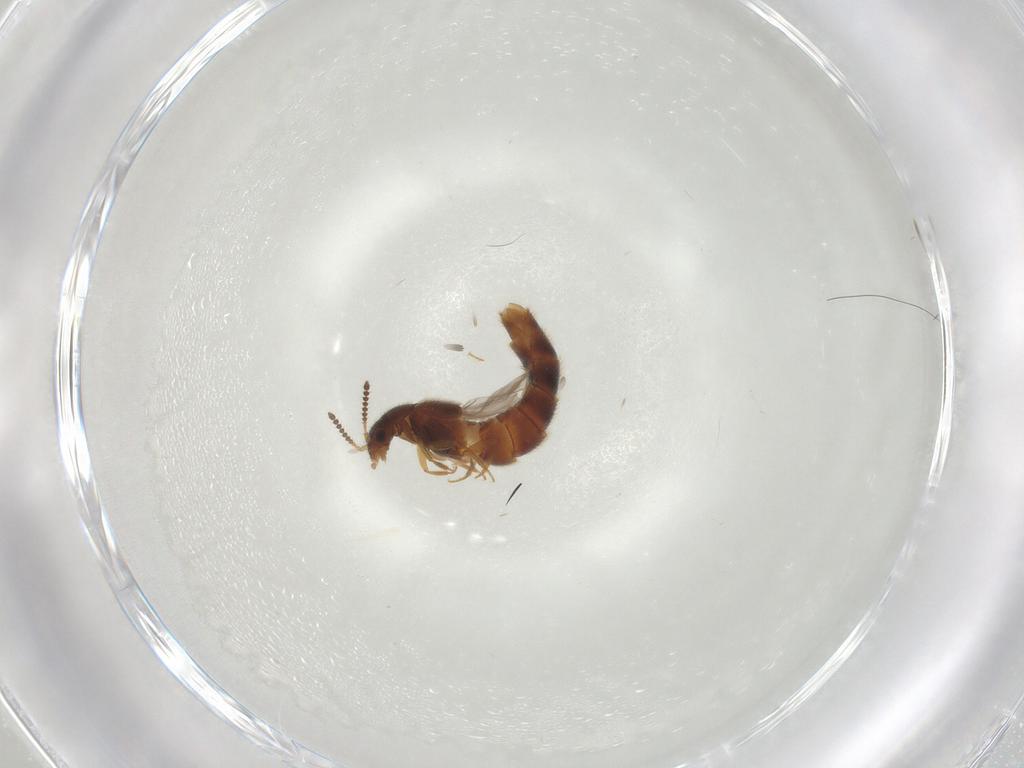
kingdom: Animalia
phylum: Arthropoda
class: Insecta
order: Coleoptera
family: Staphylinidae
